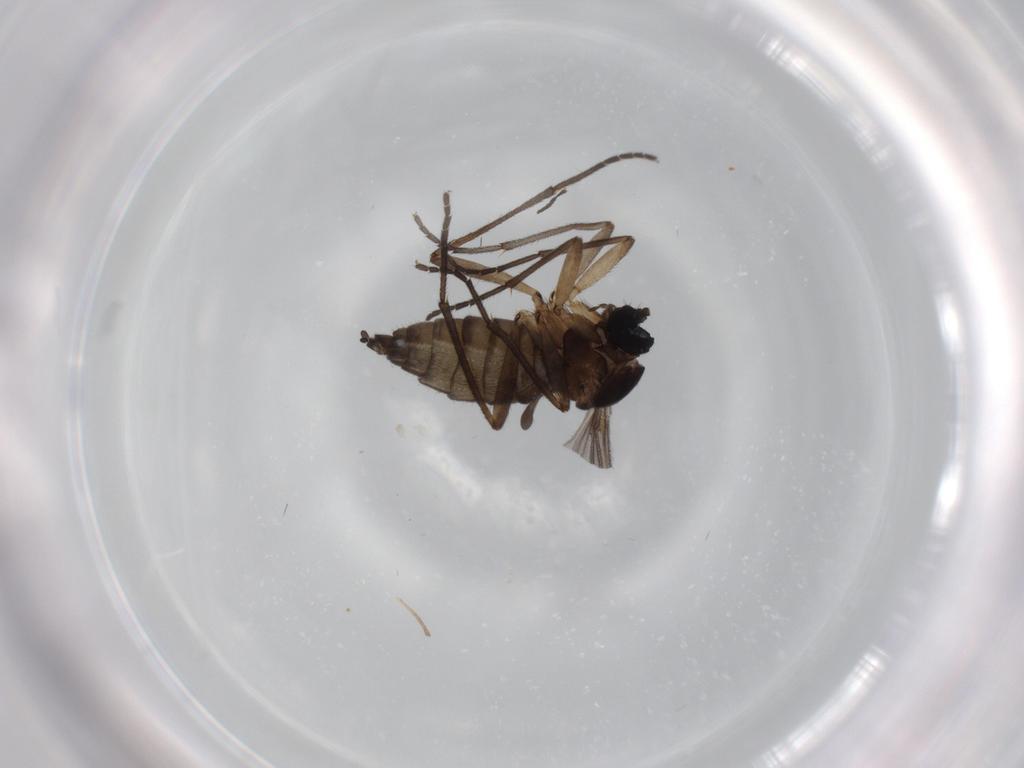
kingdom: Animalia
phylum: Arthropoda
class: Insecta
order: Diptera
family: Sciaridae
